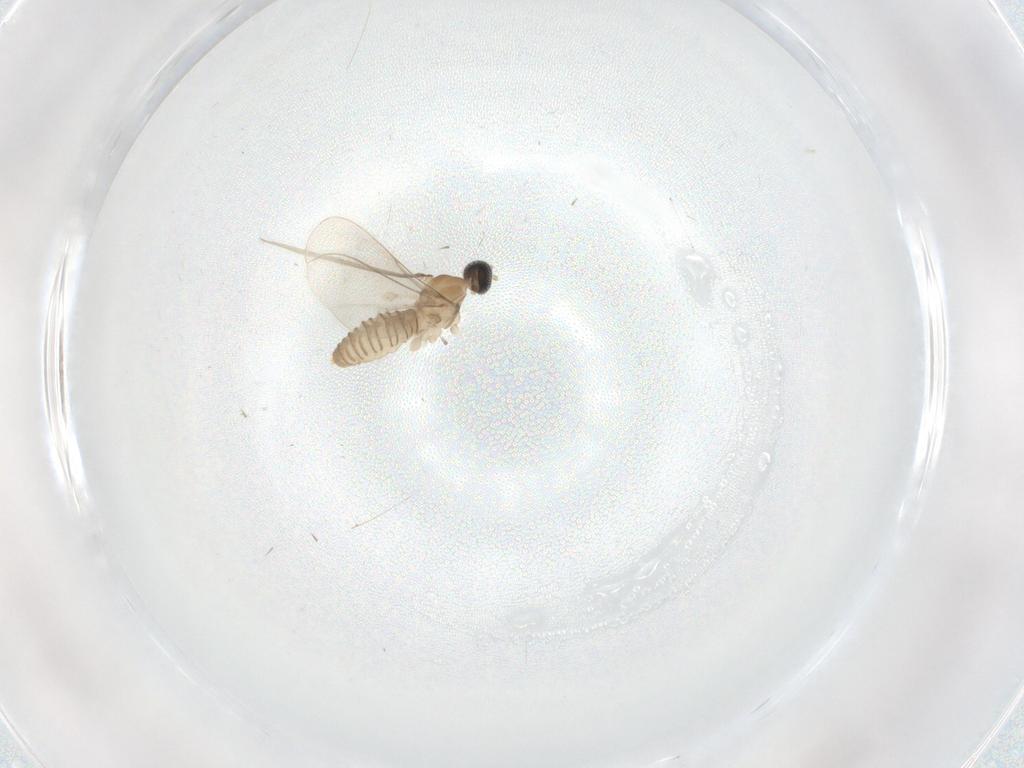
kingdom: Animalia
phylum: Arthropoda
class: Insecta
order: Diptera
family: Cecidomyiidae
